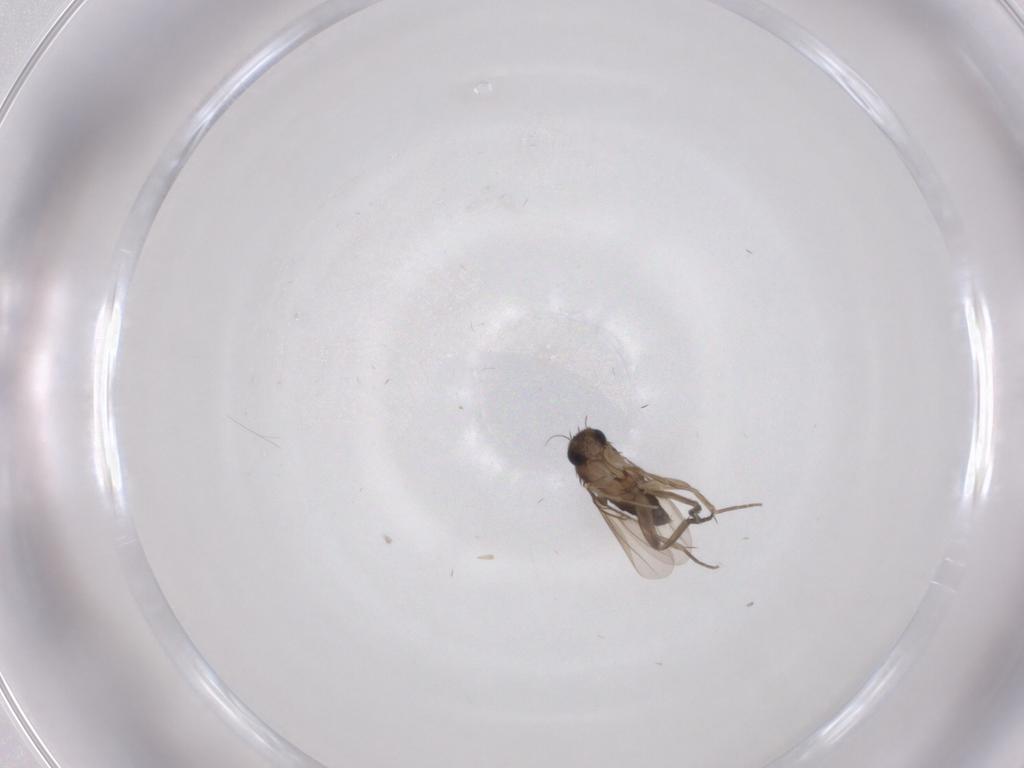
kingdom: Animalia
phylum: Arthropoda
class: Insecta
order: Diptera
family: Phoridae
